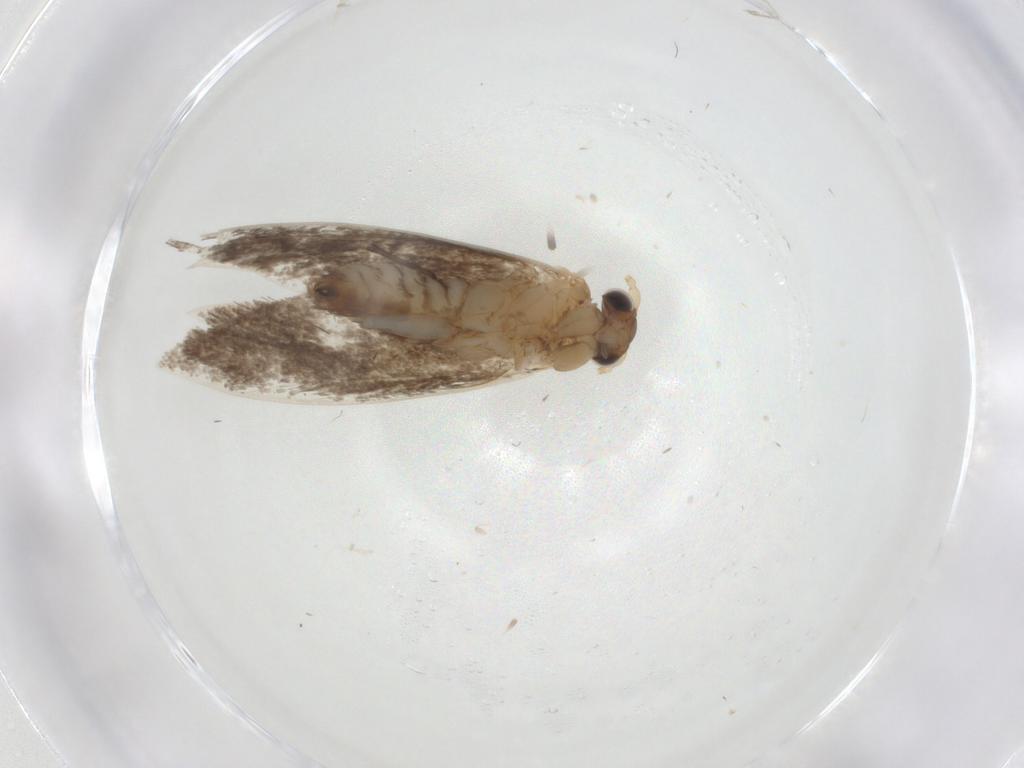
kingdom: Animalia
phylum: Arthropoda
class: Insecta
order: Lepidoptera
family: Tineidae
